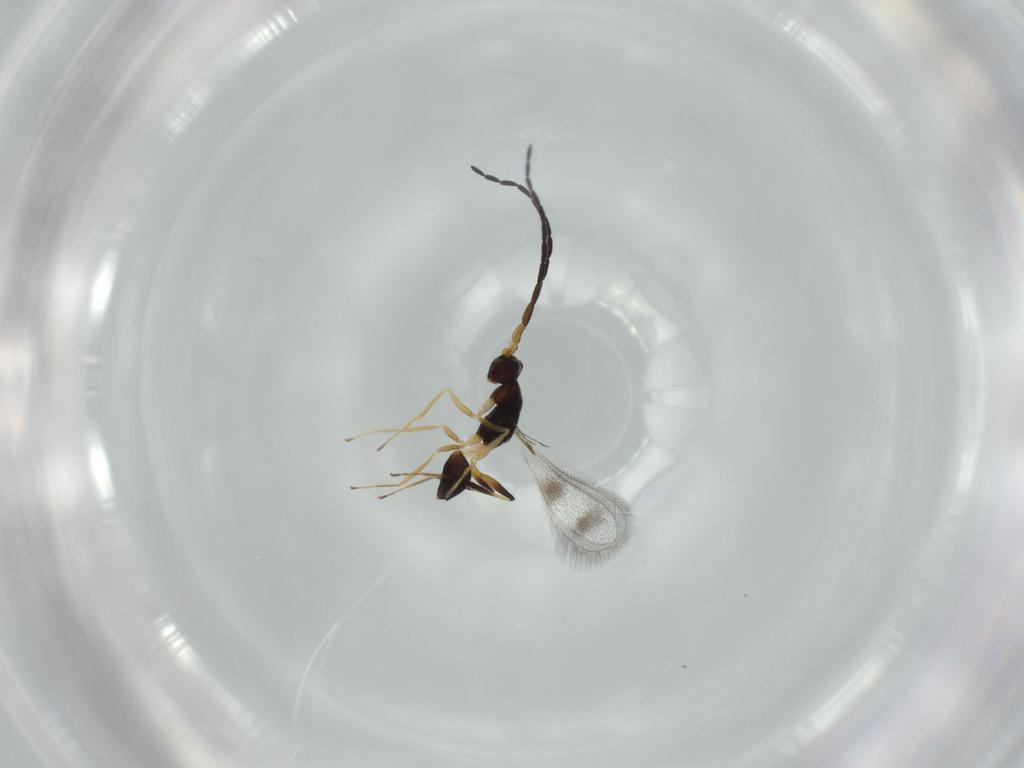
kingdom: Animalia
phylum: Arthropoda
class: Insecta
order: Hymenoptera
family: Mymaridae
